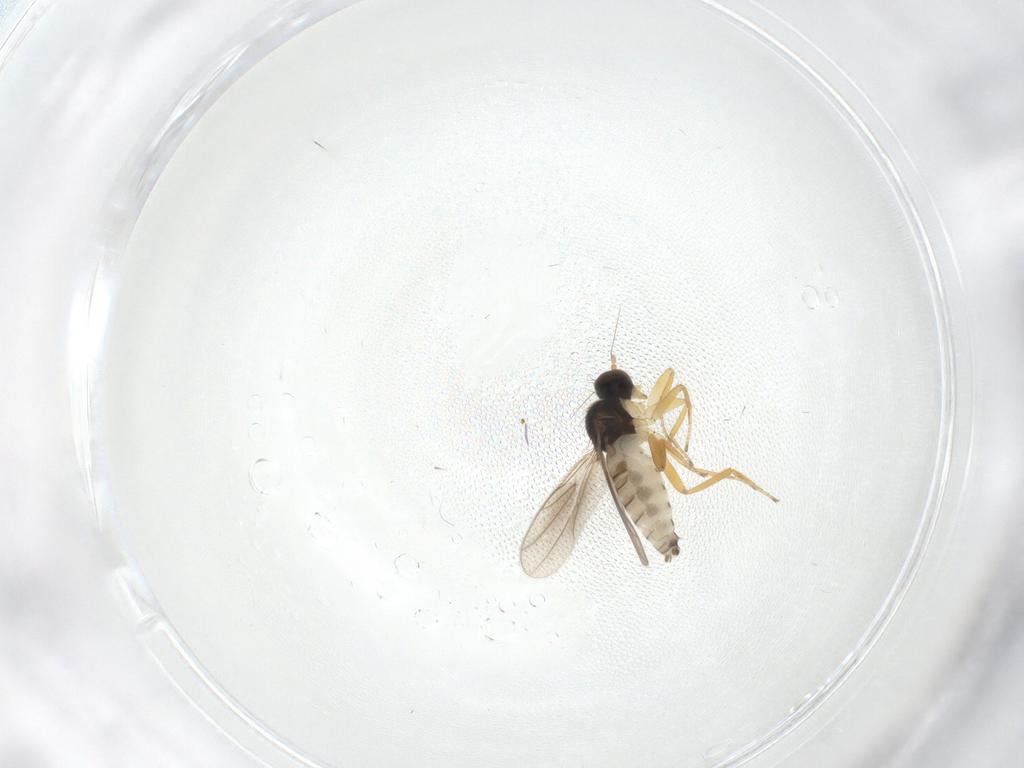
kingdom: Animalia
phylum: Arthropoda
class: Insecta
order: Diptera
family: Hybotidae
